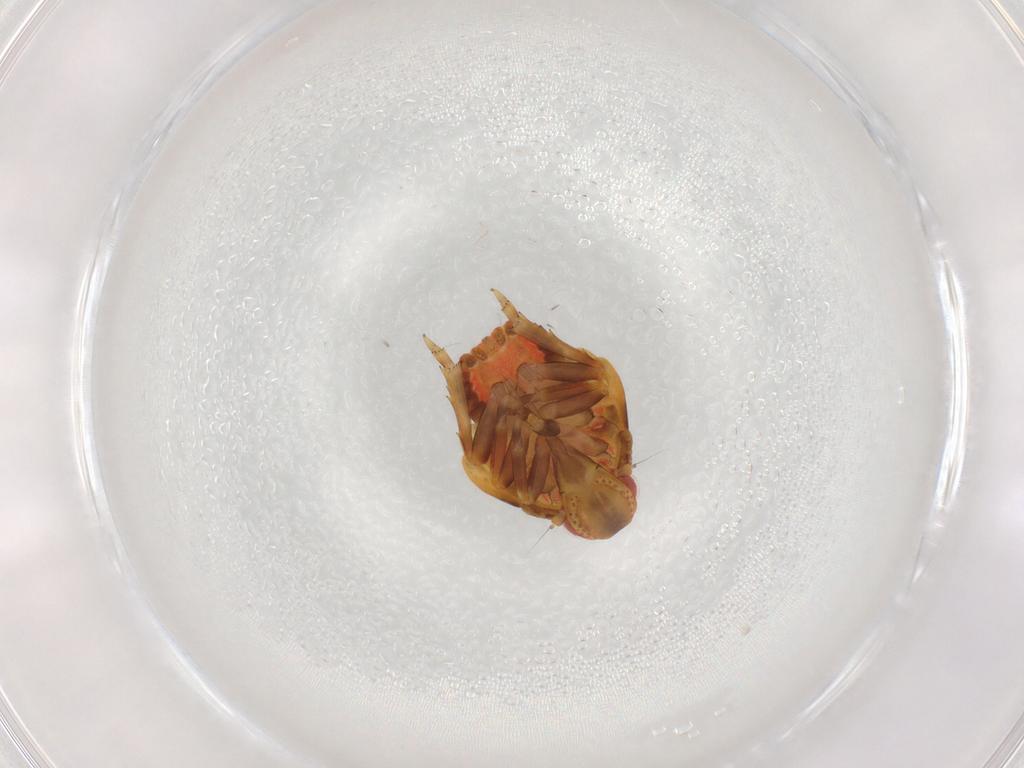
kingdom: Animalia
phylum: Arthropoda
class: Insecta
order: Hemiptera
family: Flatidae
